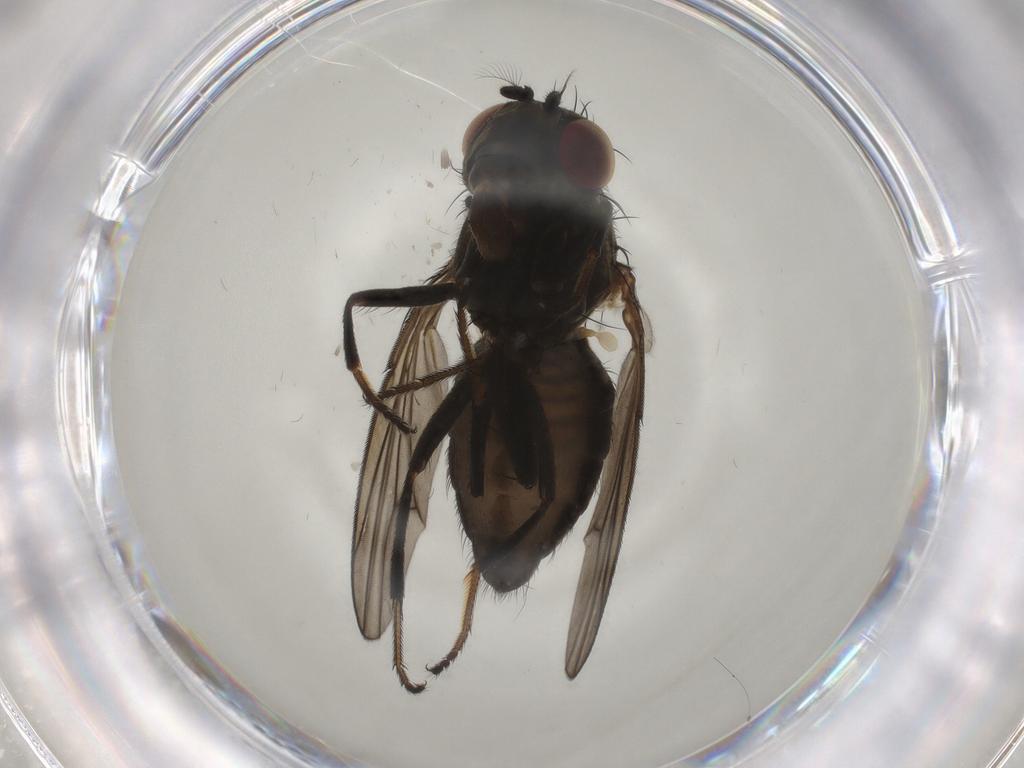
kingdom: Animalia
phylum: Arthropoda
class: Insecta
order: Diptera
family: Ephydridae
